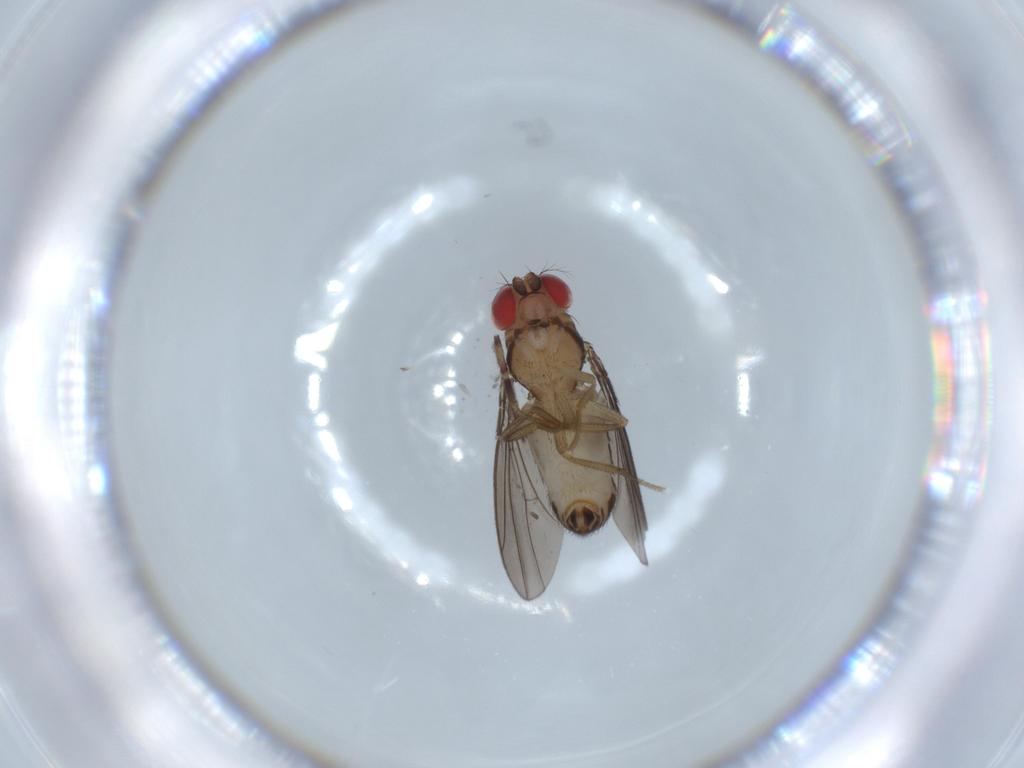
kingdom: Animalia
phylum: Arthropoda
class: Insecta
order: Diptera
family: Drosophilidae
